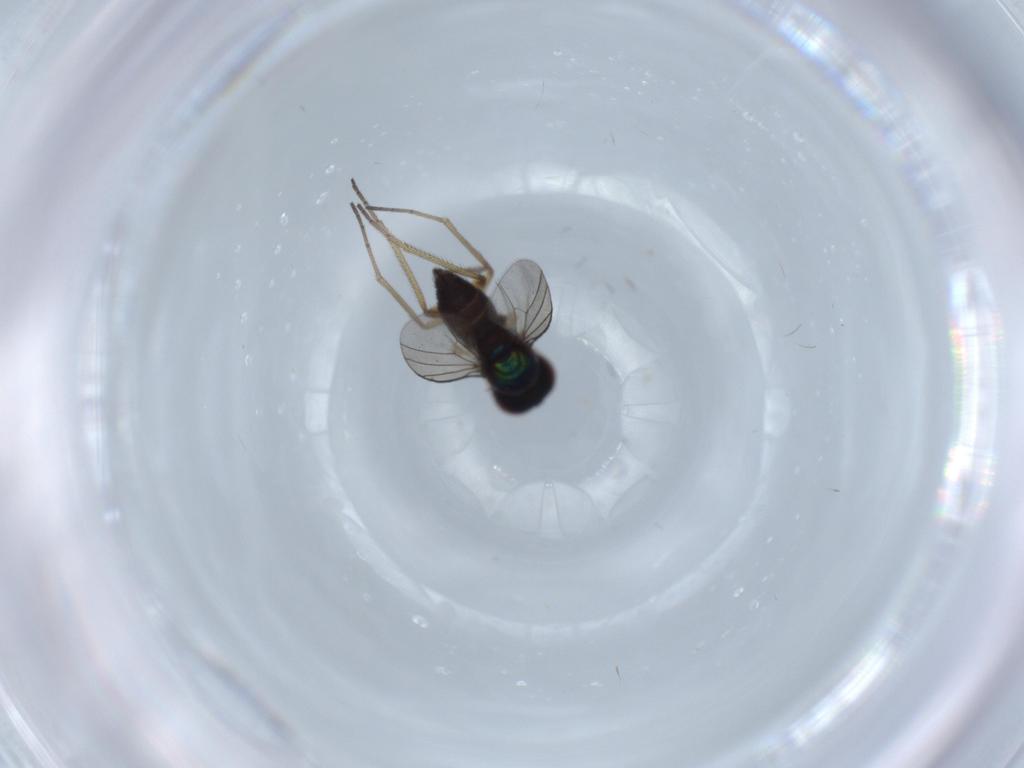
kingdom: Animalia
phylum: Arthropoda
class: Insecta
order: Diptera
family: Dolichopodidae
